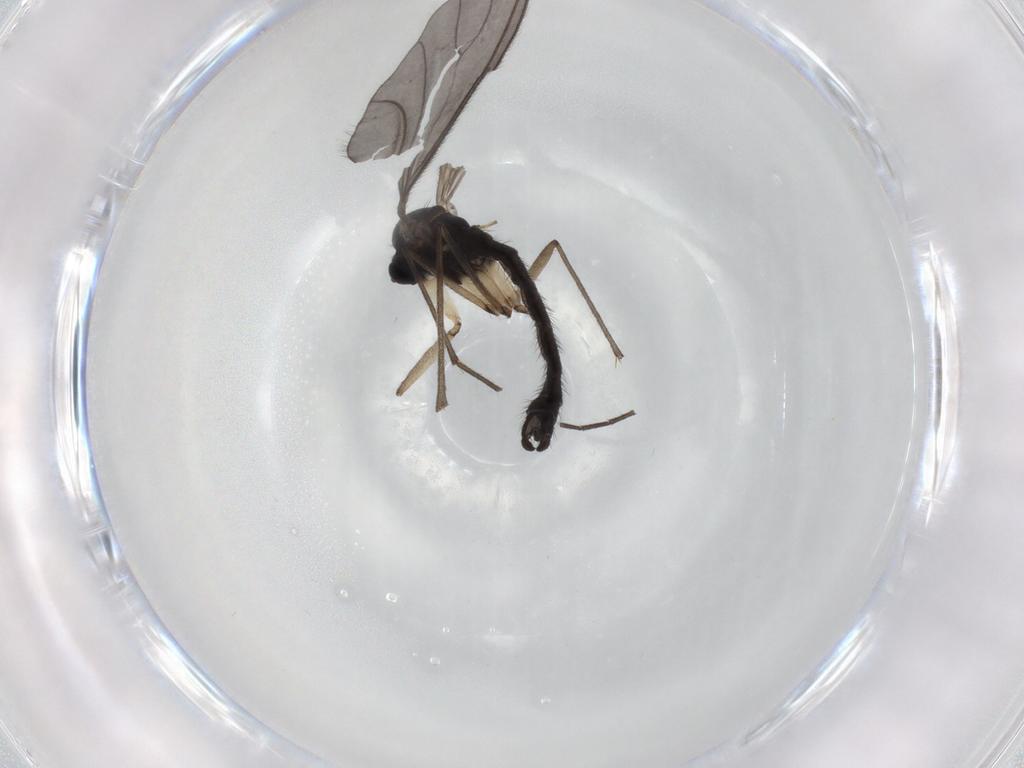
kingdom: Animalia
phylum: Arthropoda
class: Insecta
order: Diptera
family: Sciaridae
